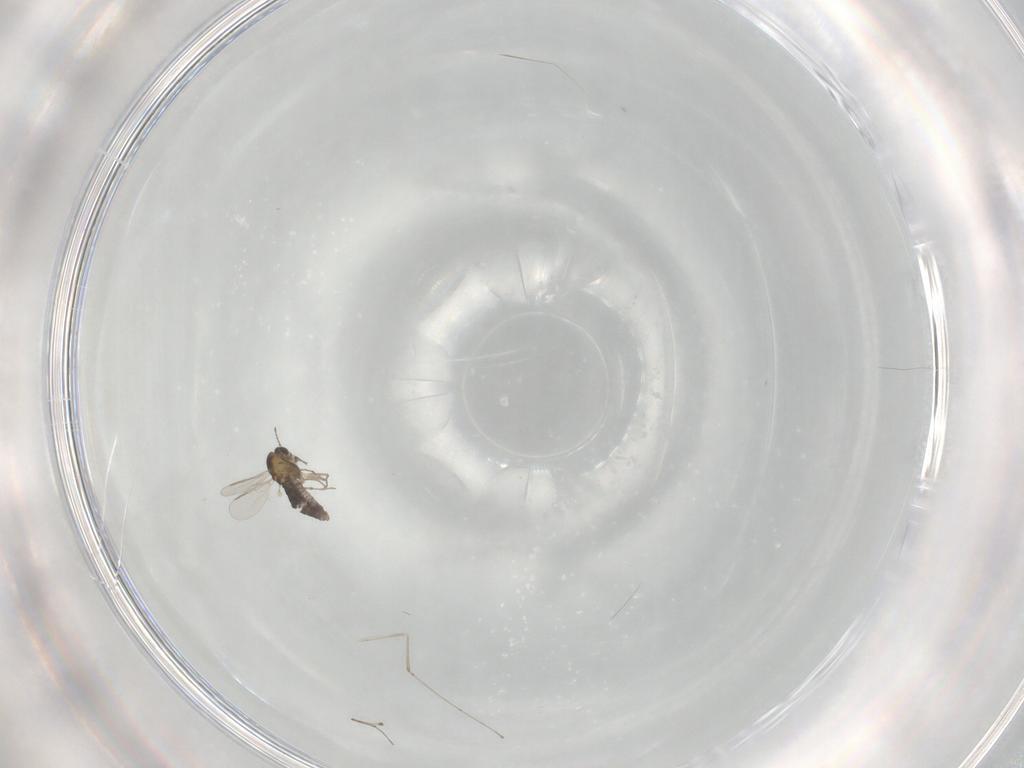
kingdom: Animalia
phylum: Arthropoda
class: Insecta
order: Diptera
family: Chironomidae
